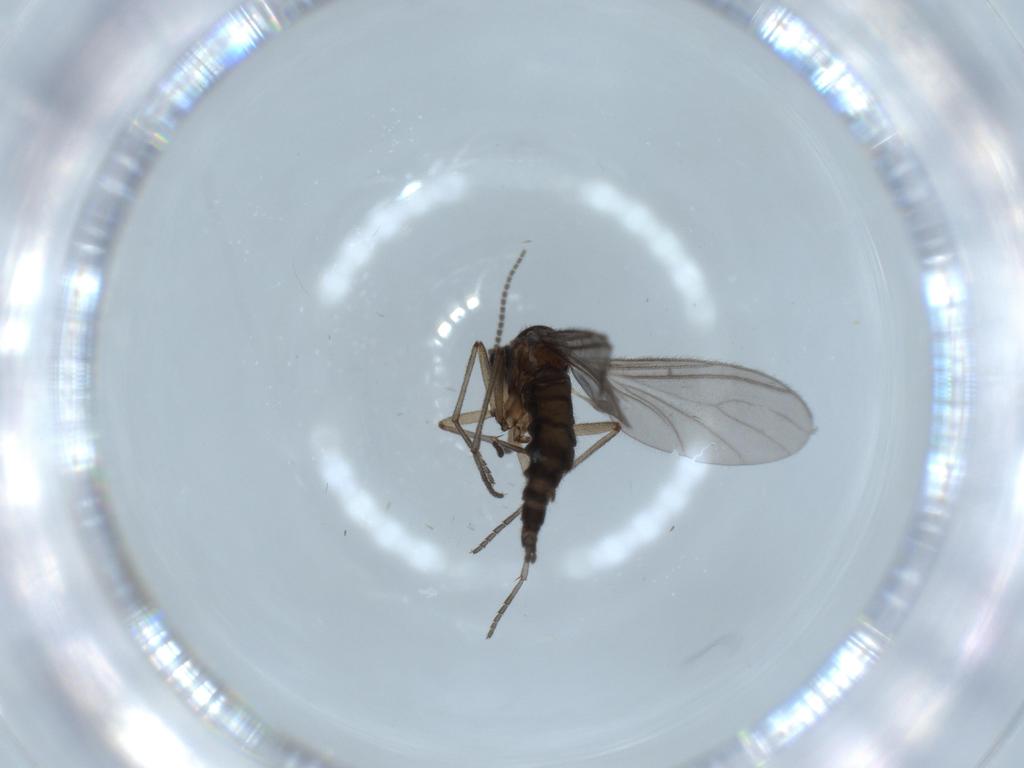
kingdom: Animalia
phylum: Arthropoda
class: Insecta
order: Diptera
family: Sciaridae
